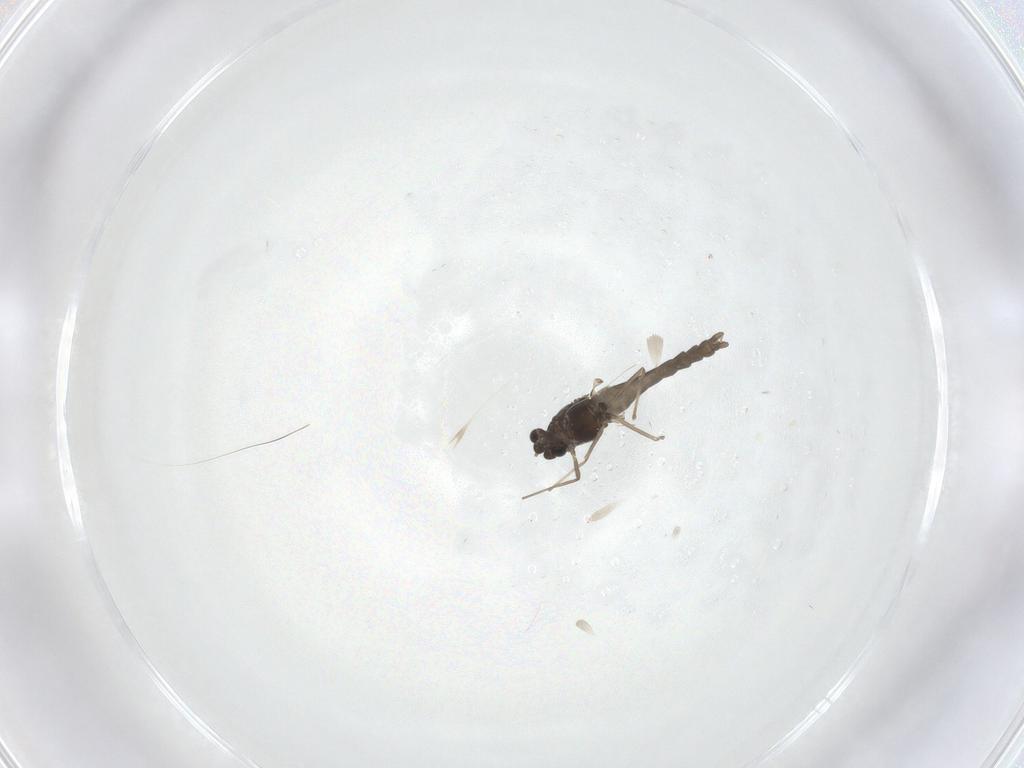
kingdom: Animalia
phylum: Arthropoda
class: Insecta
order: Diptera
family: Chironomidae
